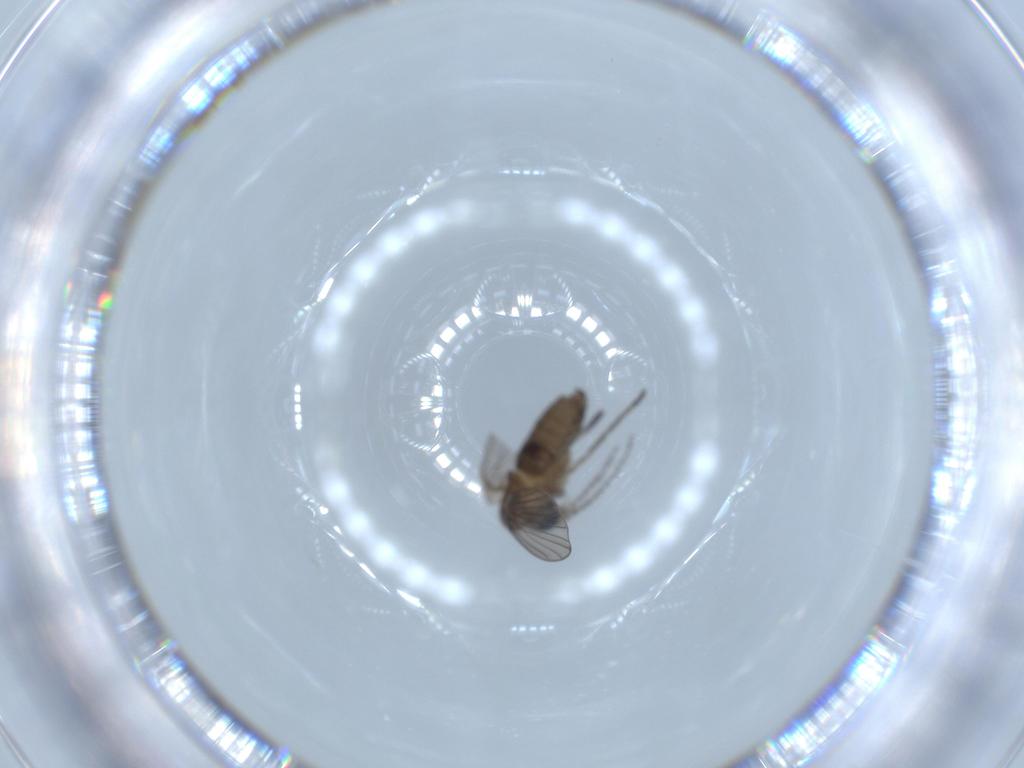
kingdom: Animalia
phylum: Arthropoda
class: Insecta
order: Diptera
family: Psychodidae
